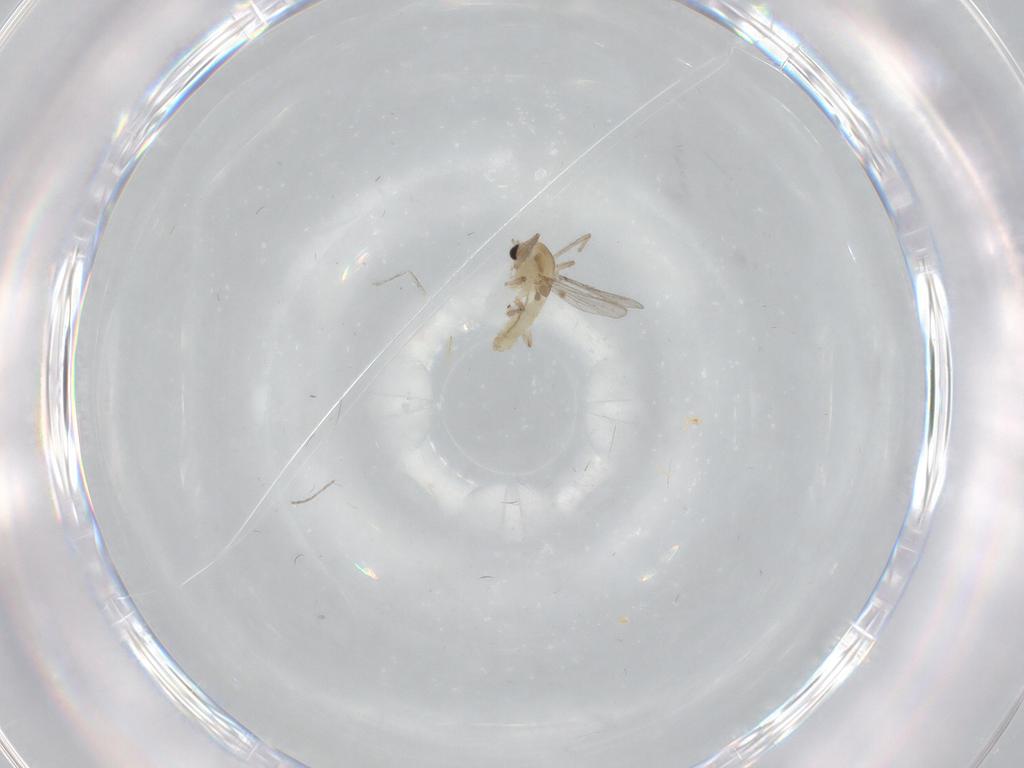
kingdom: Animalia
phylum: Arthropoda
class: Insecta
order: Diptera
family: Chironomidae
